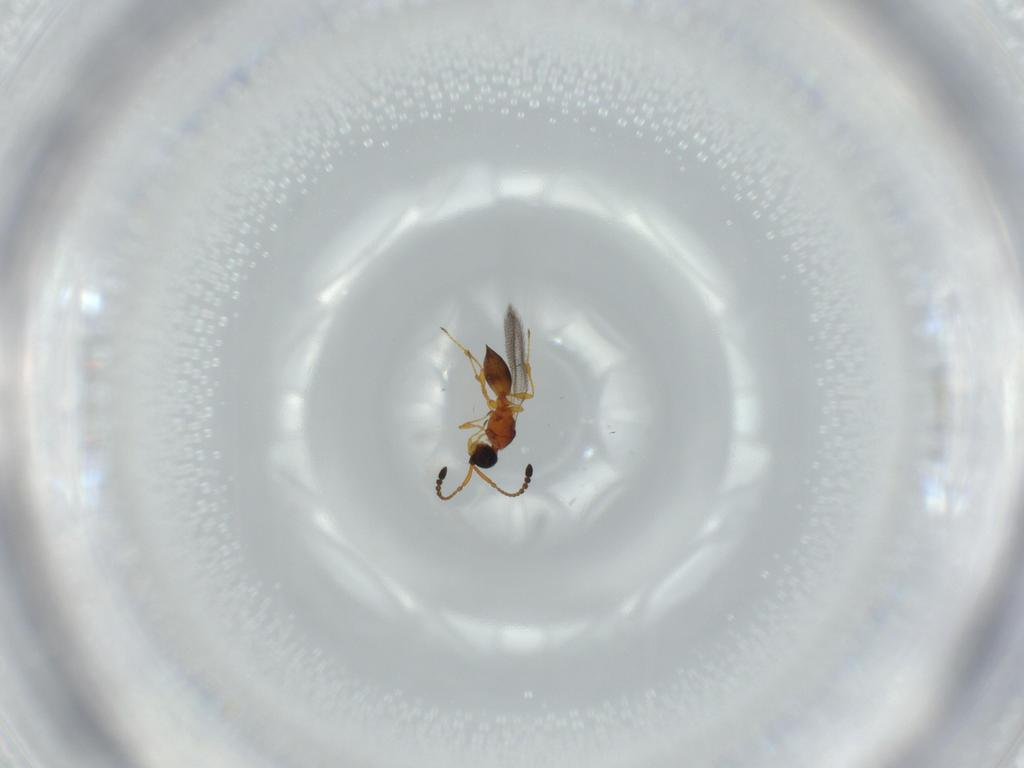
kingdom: Animalia
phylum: Arthropoda
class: Insecta
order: Hymenoptera
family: Diapriidae
